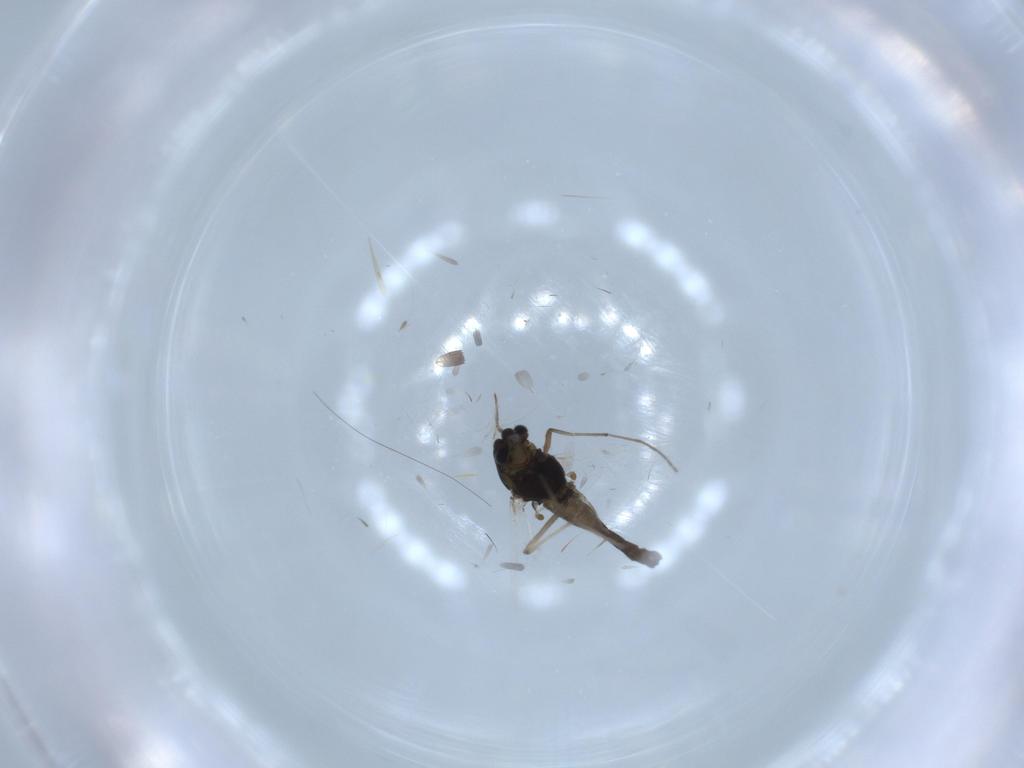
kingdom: Animalia
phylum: Arthropoda
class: Insecta
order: Diptera
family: Chironomidae
